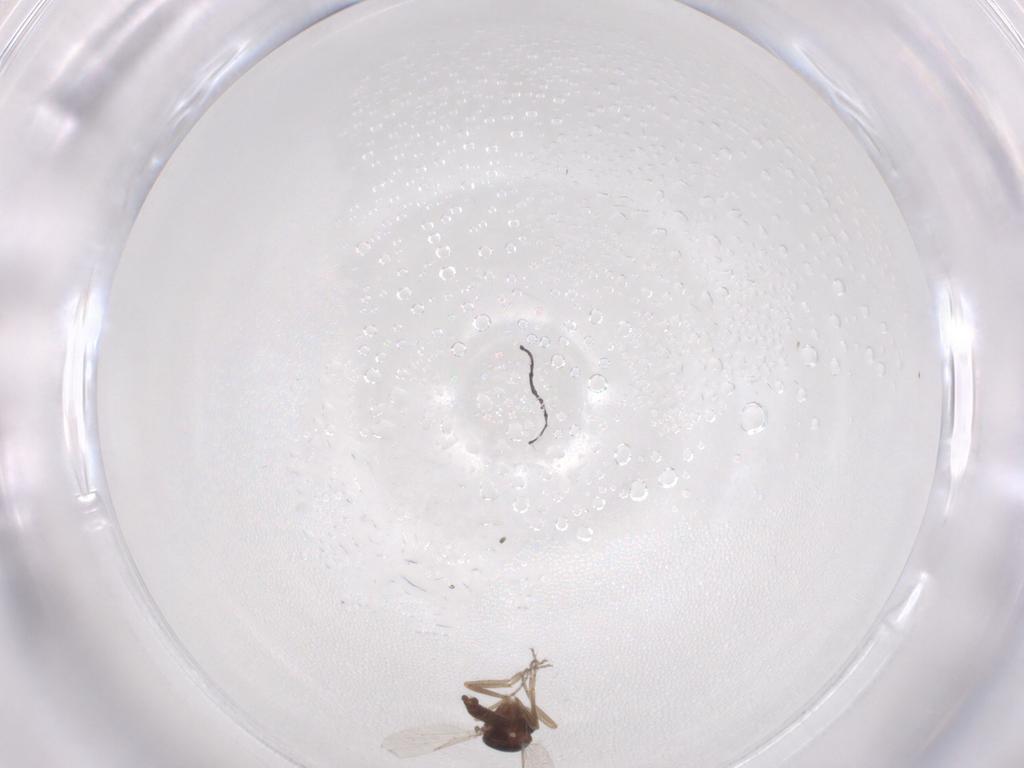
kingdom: Animalia
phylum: Arthropoda
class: Insecta
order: Diptera
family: Ceratopogonidae
